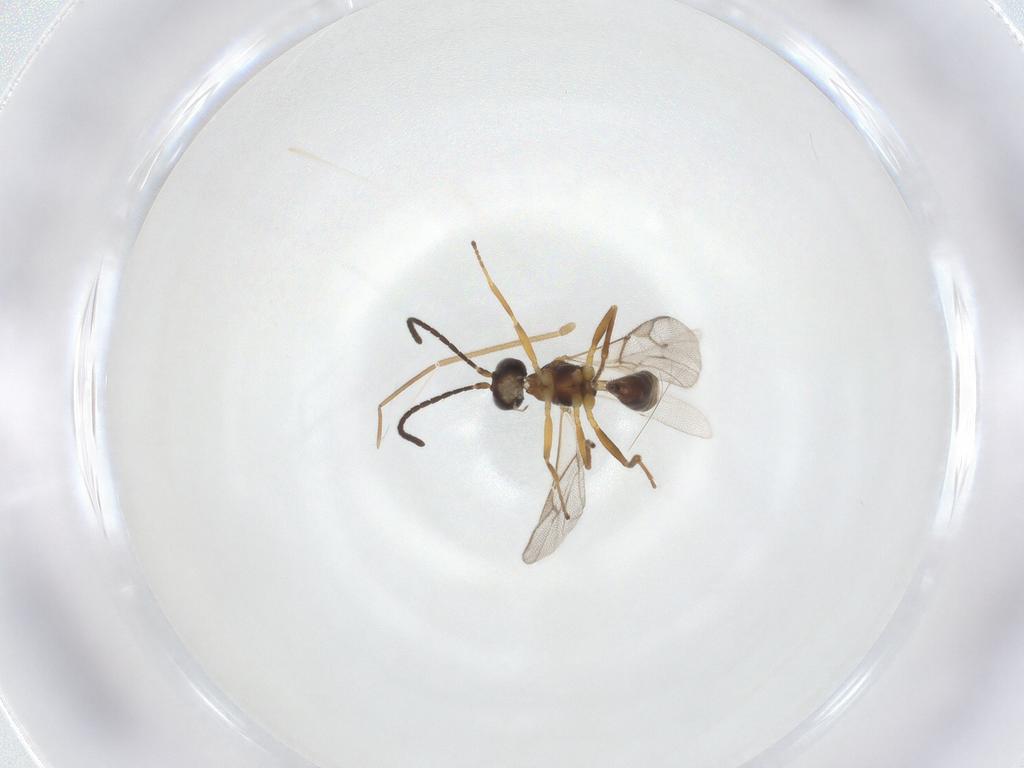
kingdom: Animalia
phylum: Arthropoda
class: Insecta
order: Hymenoptera
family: Braconidae
